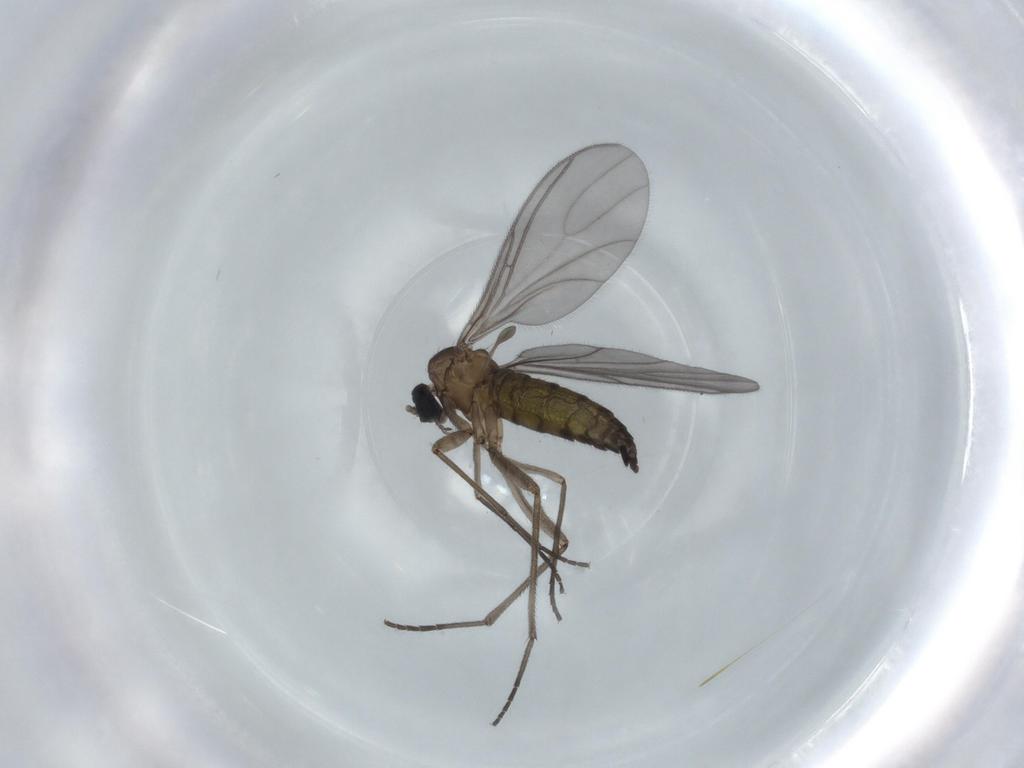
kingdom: Animalia
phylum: Arthropoda
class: Insecta
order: Diptera
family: Sciaridae
